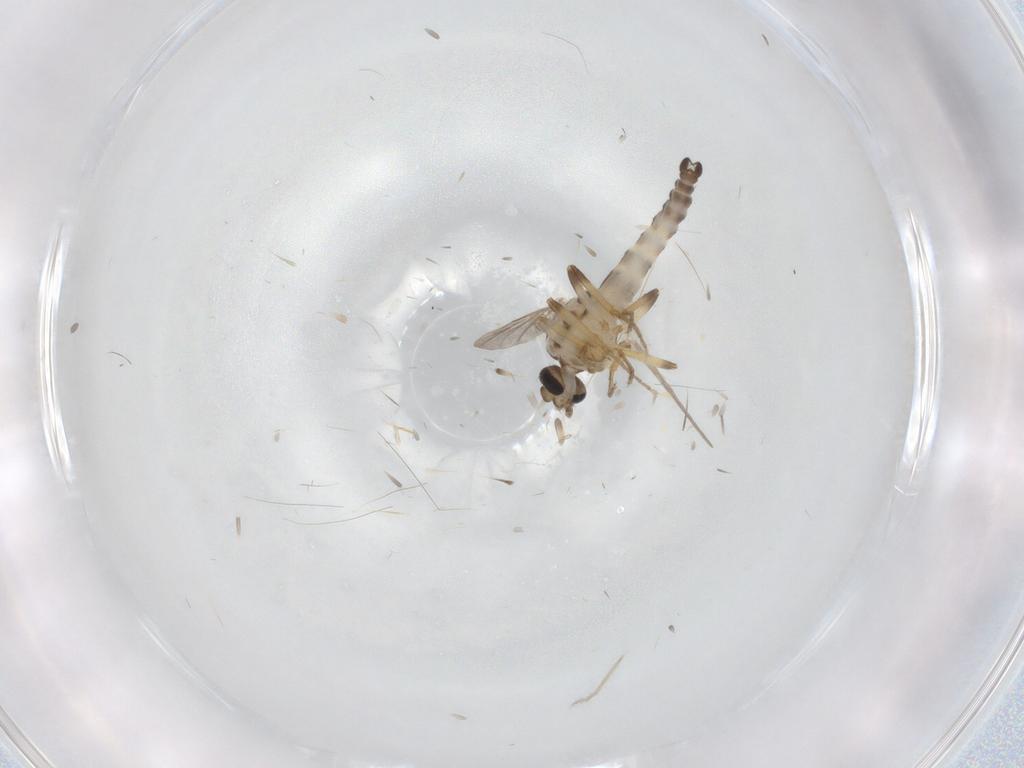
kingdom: Animalia
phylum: Arthropoda
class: Insecta
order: Diptera
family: Ceratopogonidae
